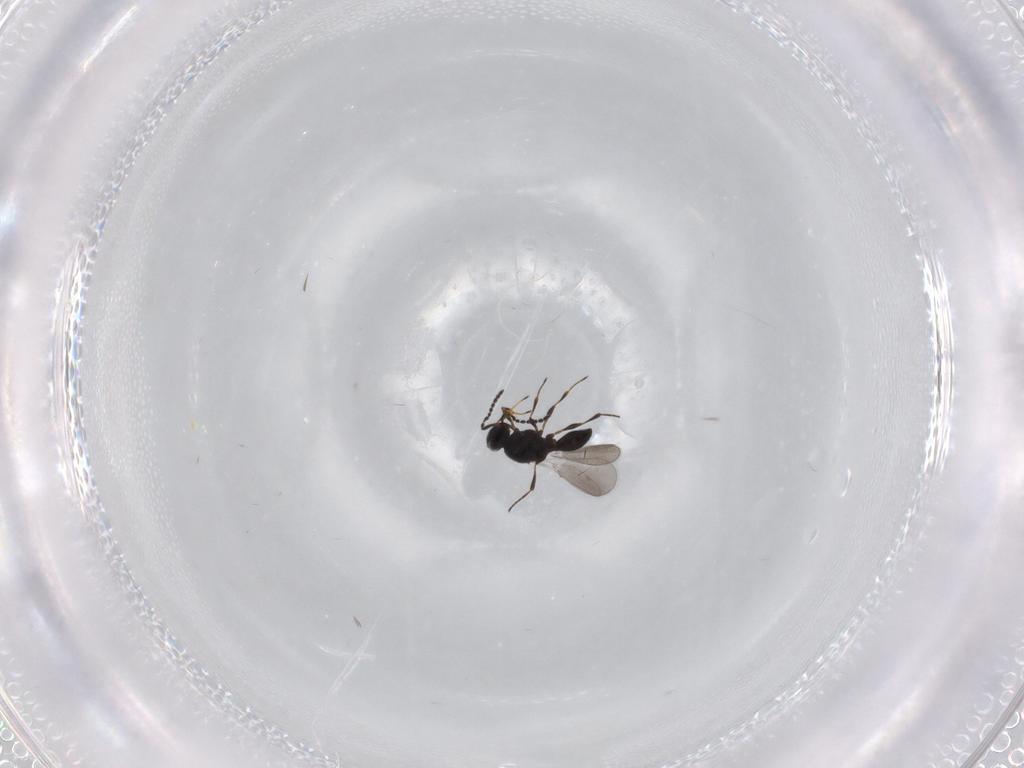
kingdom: Animalia
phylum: Arthropoda
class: Insecta
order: Hymenoptera
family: Platygastridae
